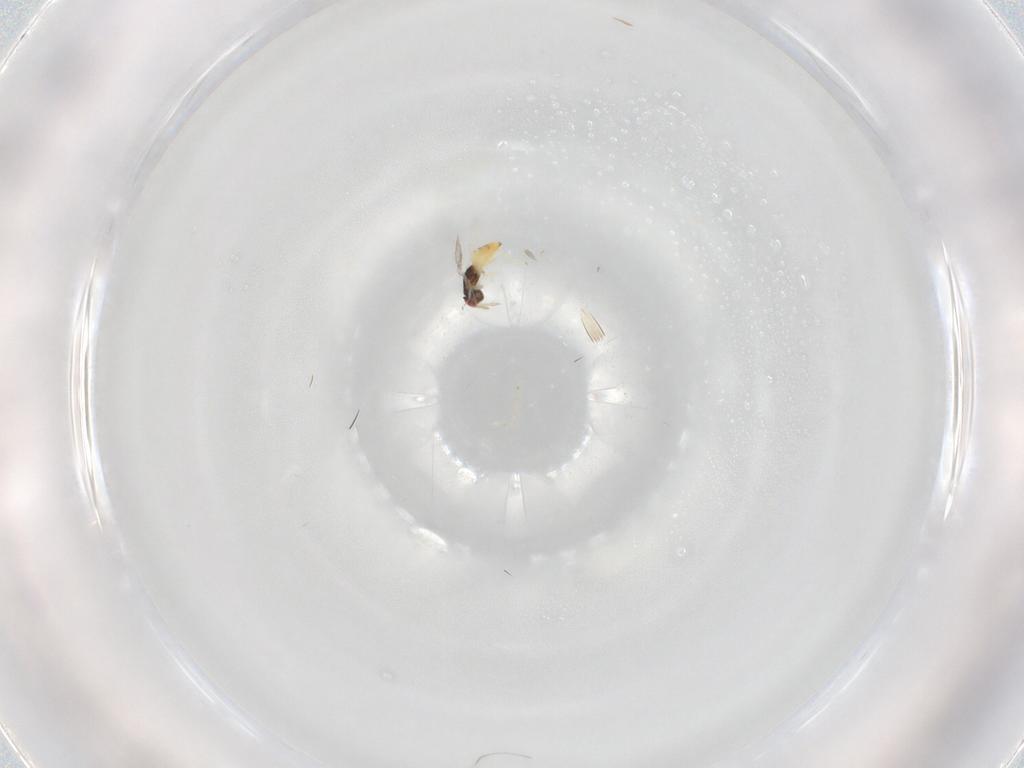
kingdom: Animalia
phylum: Arthropoda
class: Insecta
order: Hymenoptera
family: Eulophidae
